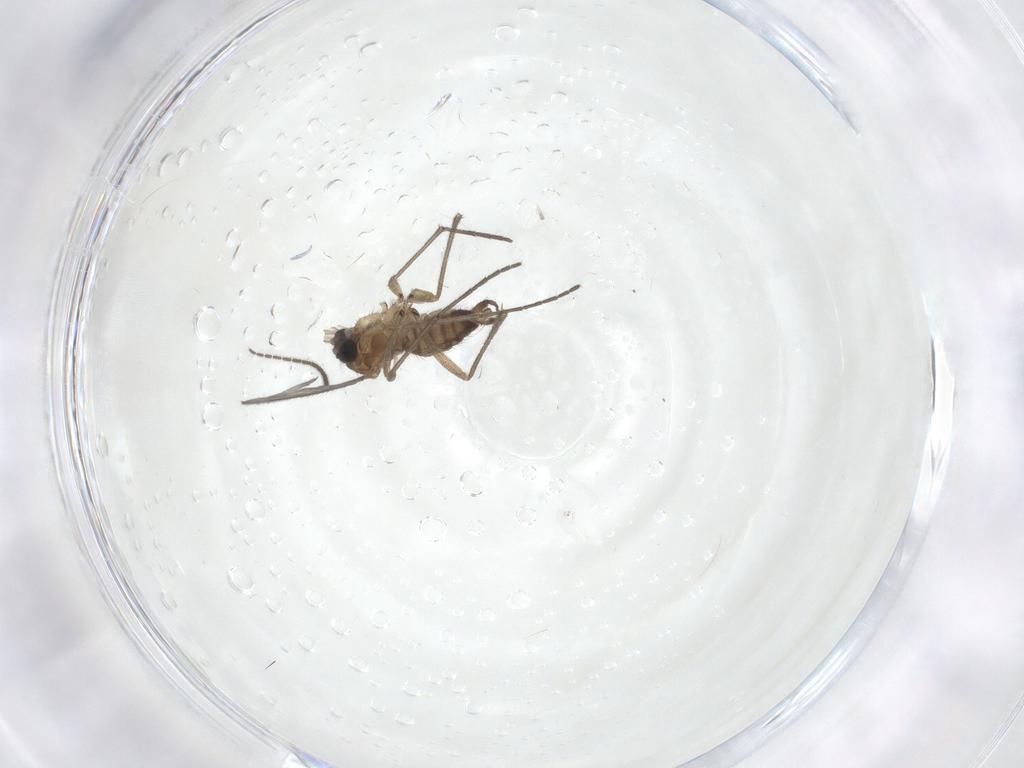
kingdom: Animalia
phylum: Arthropoda
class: Insecta
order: Diptera
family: Sciaridae
